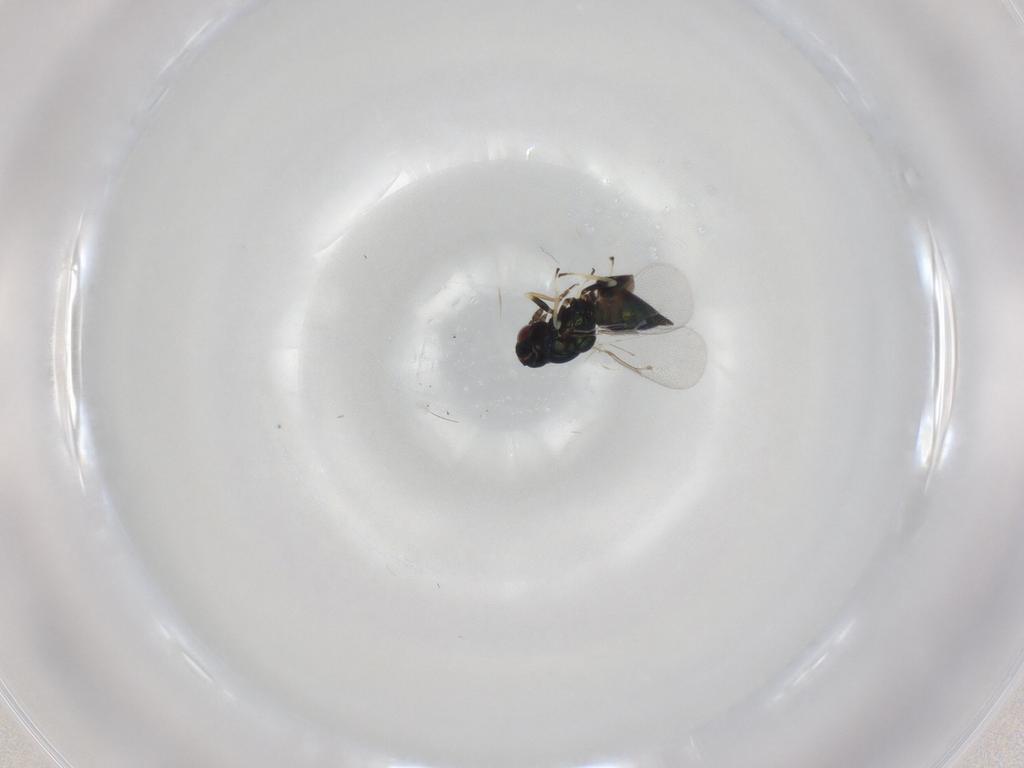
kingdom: Animalia
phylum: Arthropoda
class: Insecta
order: Hymenoptera
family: Eulophidae
